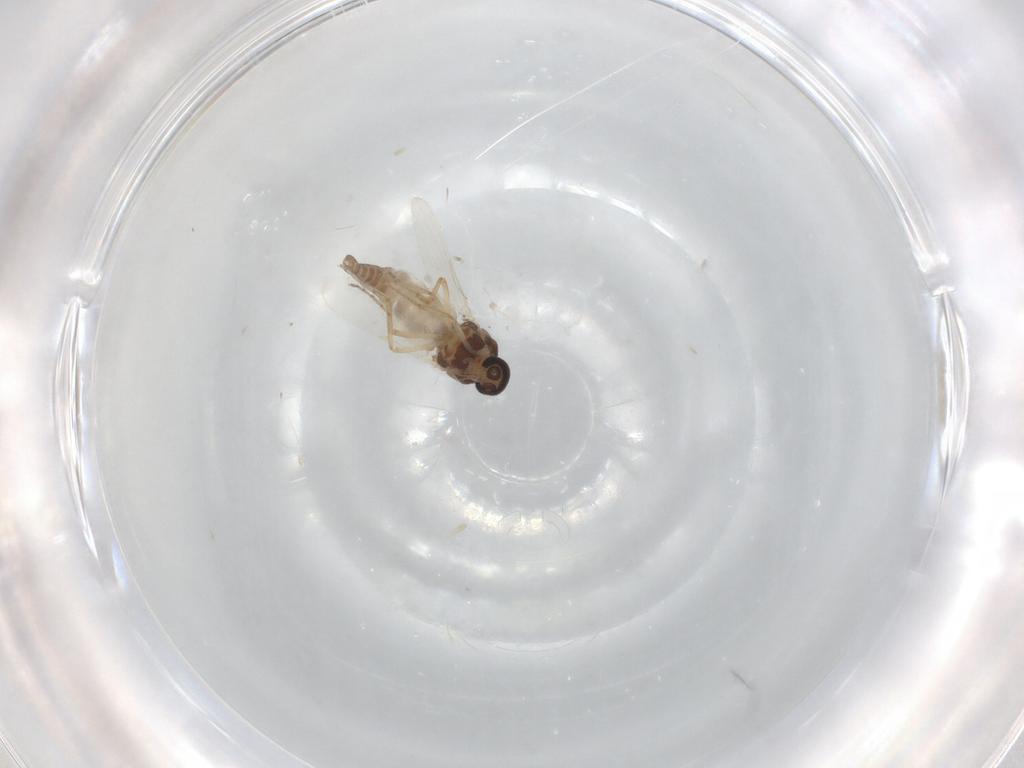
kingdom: Animalia
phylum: Arthropoda
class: Insecta
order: Diptera
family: Ceratopogonidae
